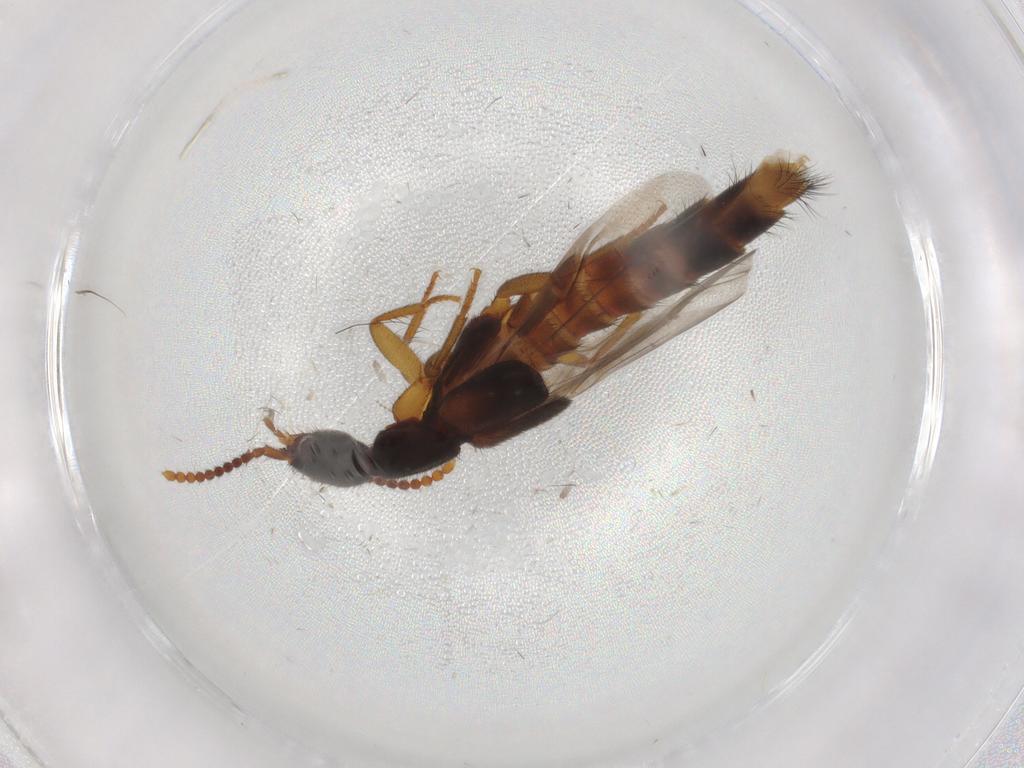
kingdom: Animalia
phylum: Arthropoda
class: Insecta
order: Coleoptera
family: Staphylinidae
